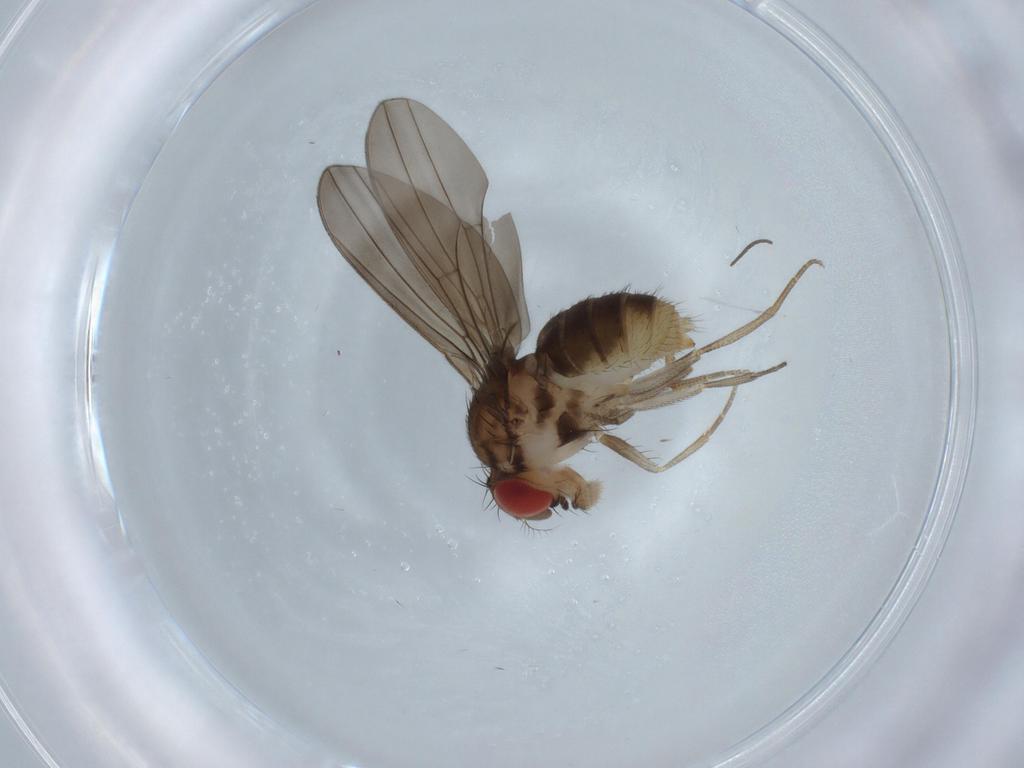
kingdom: Animalia
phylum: Arthropoda
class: Insecta
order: Diptera
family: Drosophilidae
